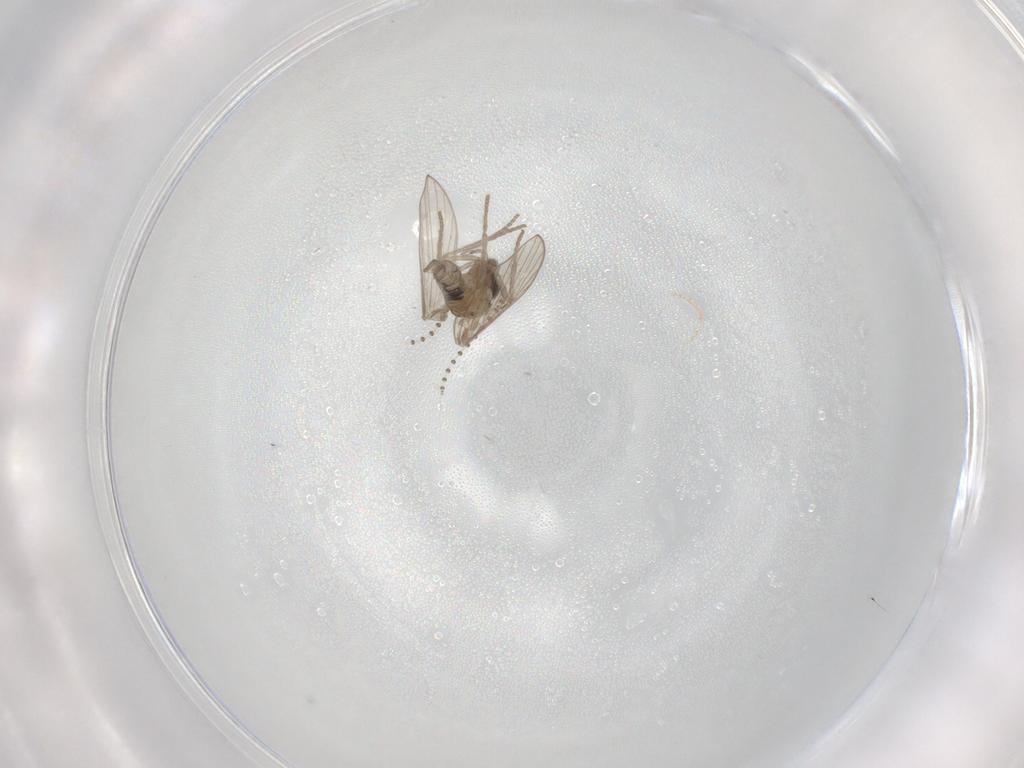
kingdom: Animalia
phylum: Arthropoda
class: Insecta
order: Diptera
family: Psychodidae
